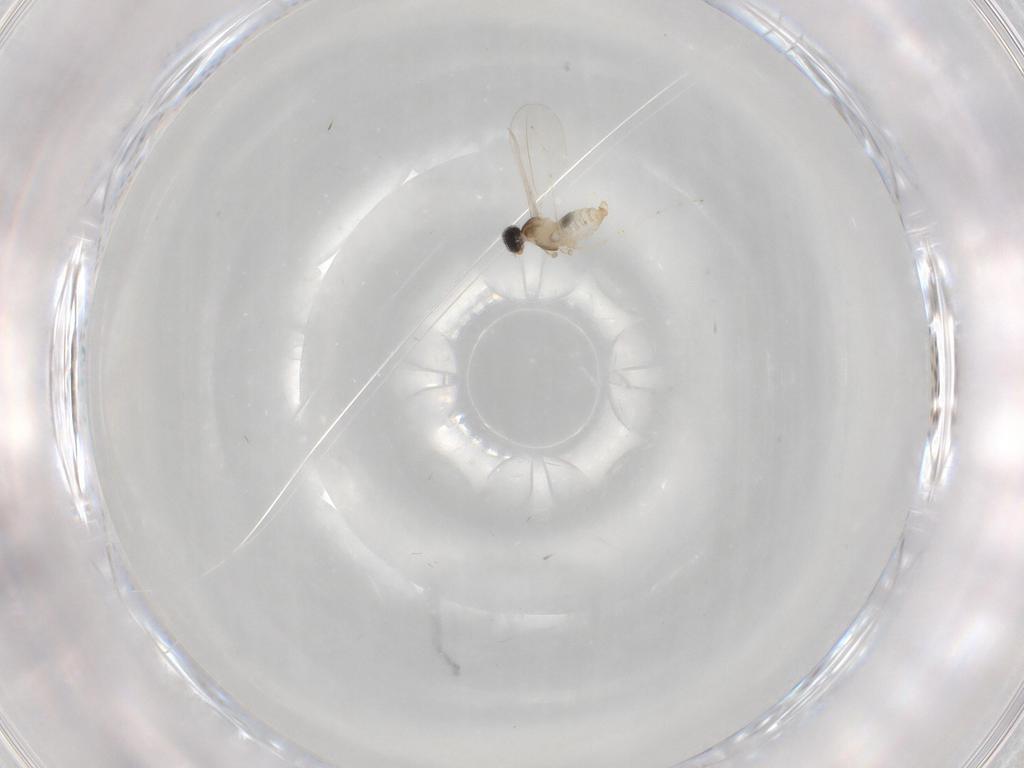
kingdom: Animalia
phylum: Arthropoda
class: Insecta
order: Diptera
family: Cecidomyiidae
